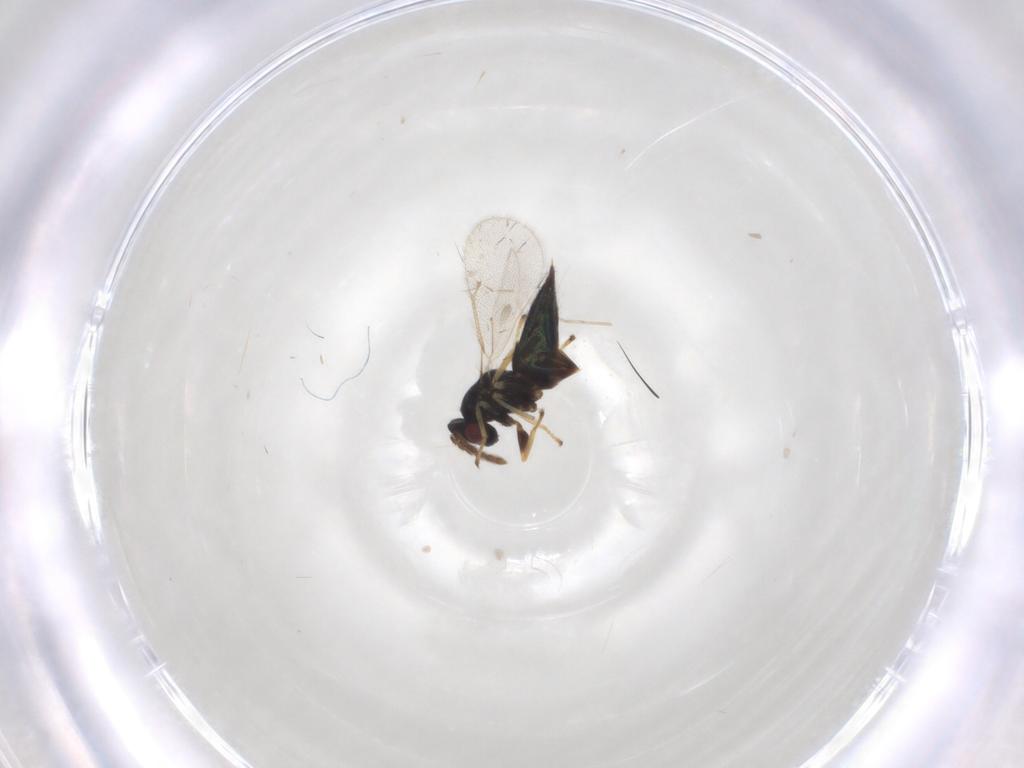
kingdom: Animalia
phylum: Arthropoda
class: Insecta
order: Hymenoptera
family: Eulophidae
